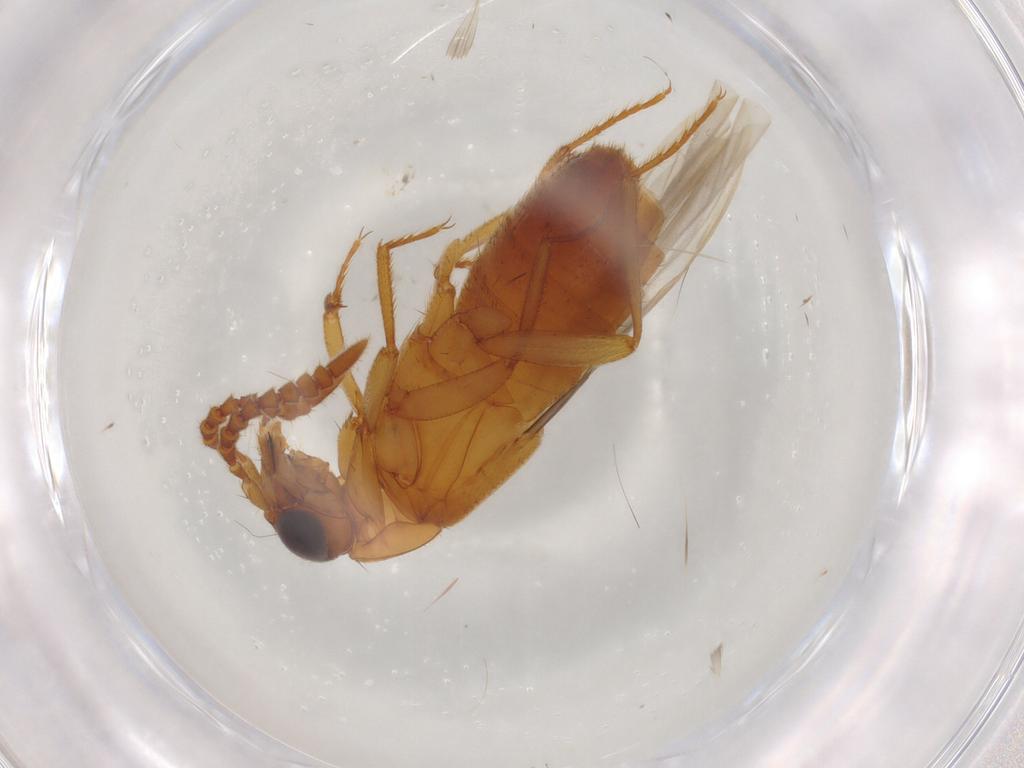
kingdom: Animalia
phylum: Arthropoda
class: Insecta
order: Coleoptera
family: Staphylinidae
